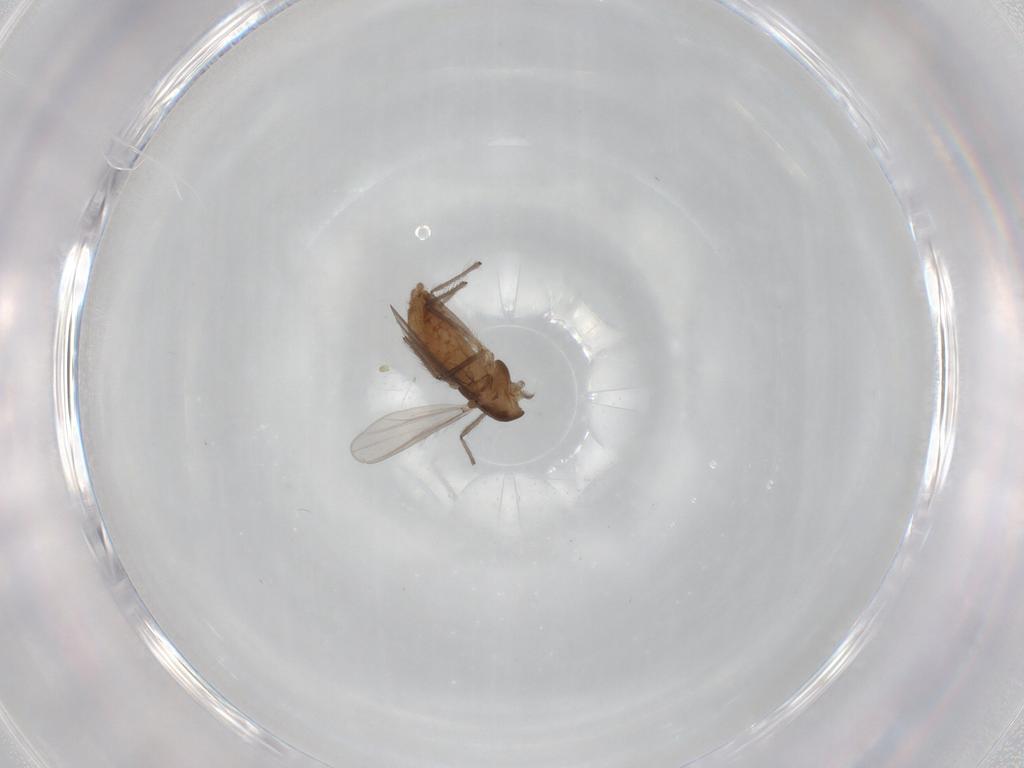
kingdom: Animalia
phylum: Arthropoda
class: Insecta
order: Diptera
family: Chironomidae
